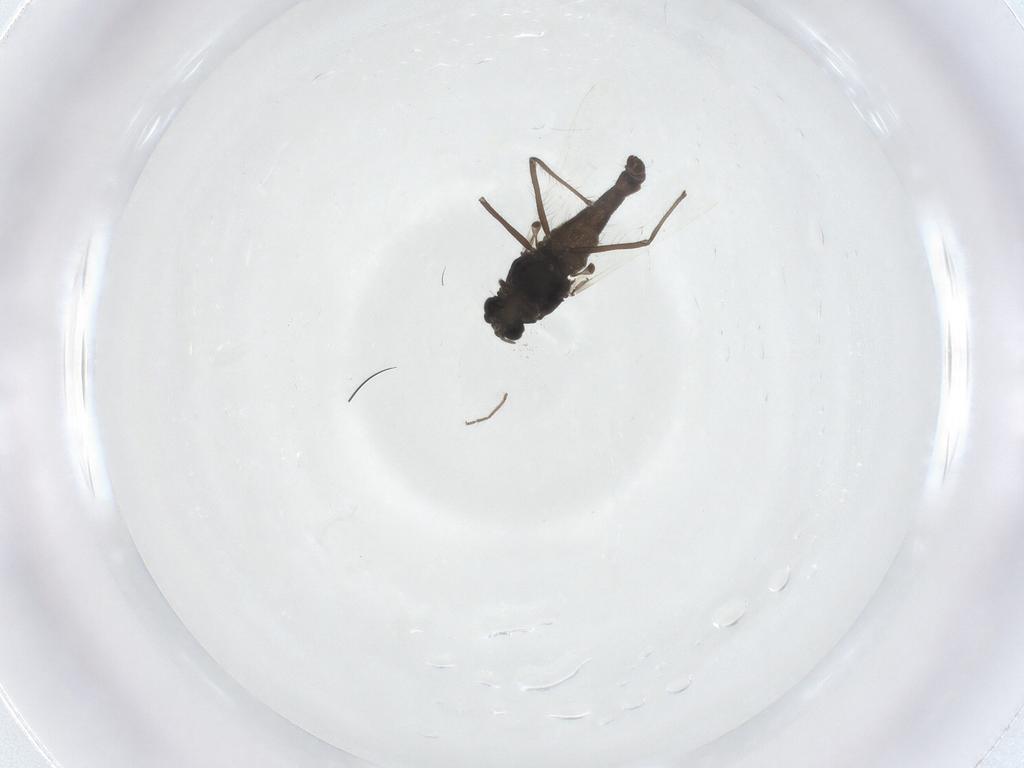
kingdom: Animalia
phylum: Arthropoda
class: Insecta
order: Diptera
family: Chironomidae
